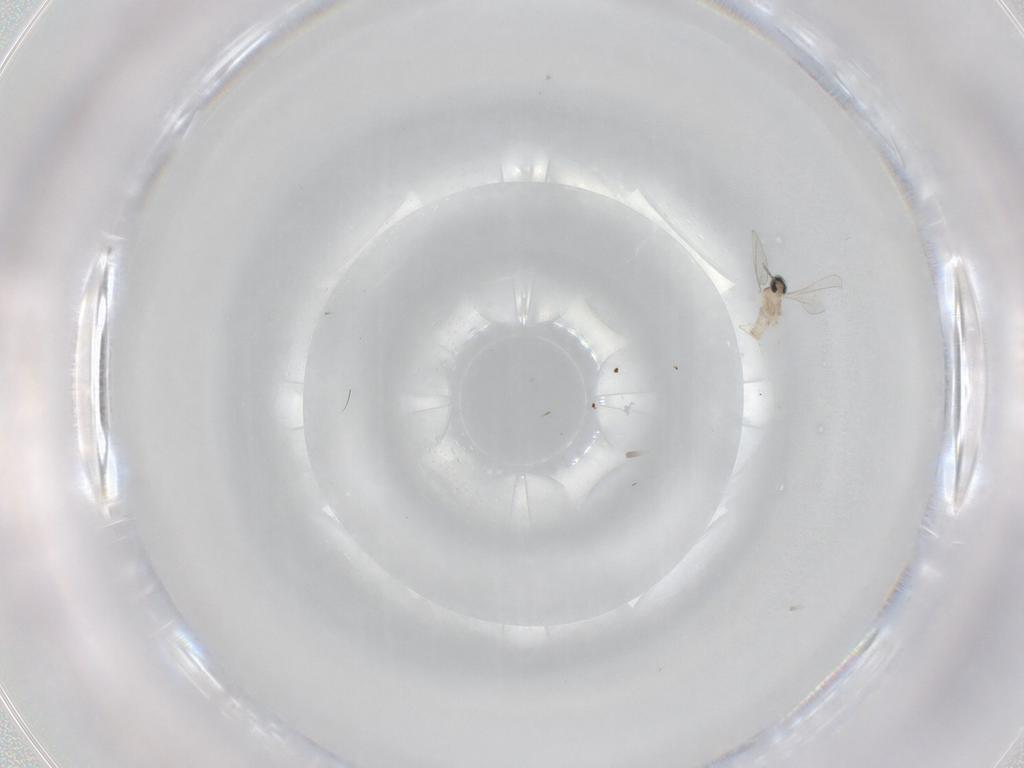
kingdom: Animalia
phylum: Arthropoda
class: Insecta
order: Diptera
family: Cecidomyiidae
